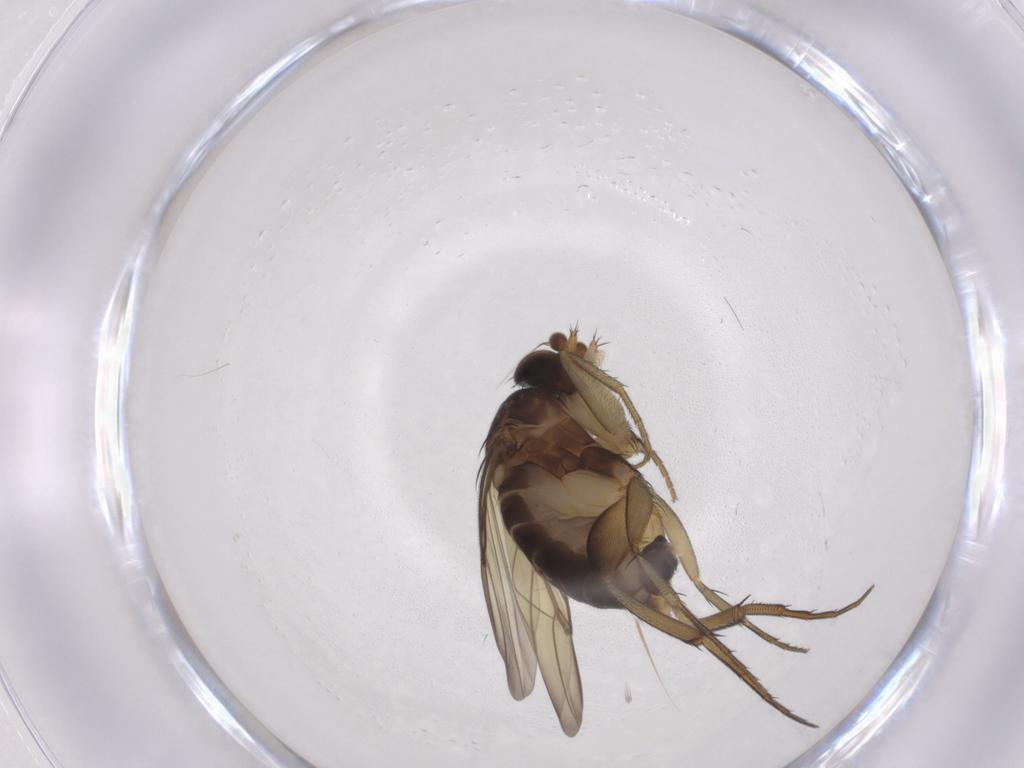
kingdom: Animalia
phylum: Arthropoda
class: Insecta
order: Diptera
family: Phoridae
